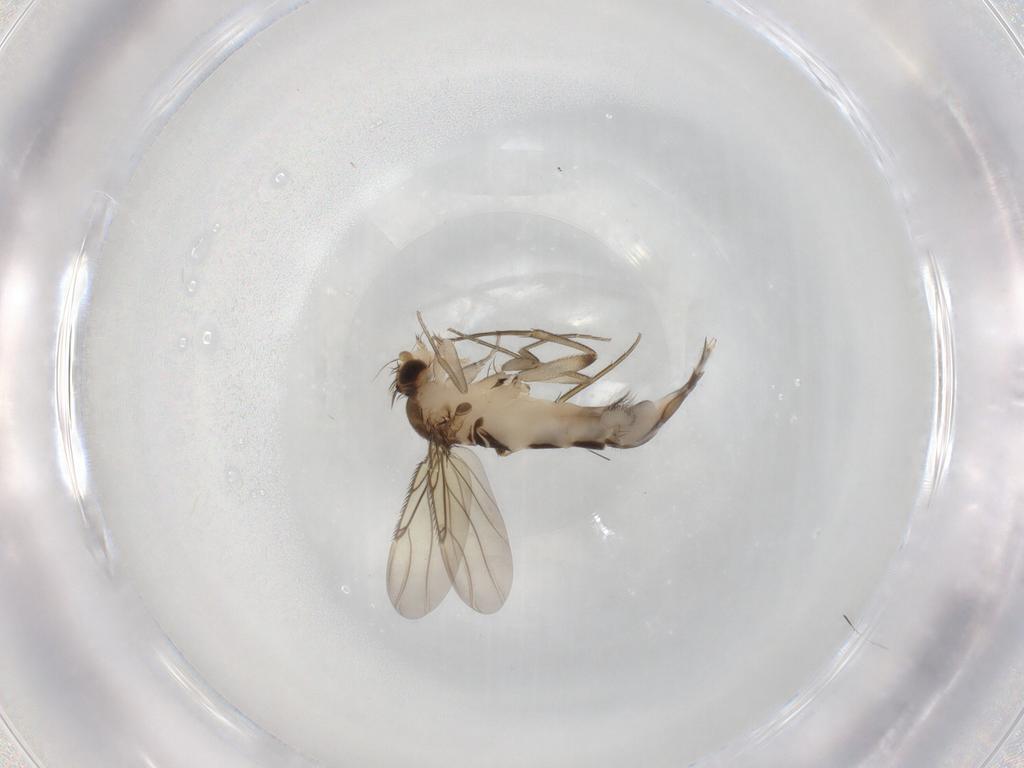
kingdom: Animalia
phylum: Arthropoda
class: Insecta
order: Diptera
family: Phoridae
